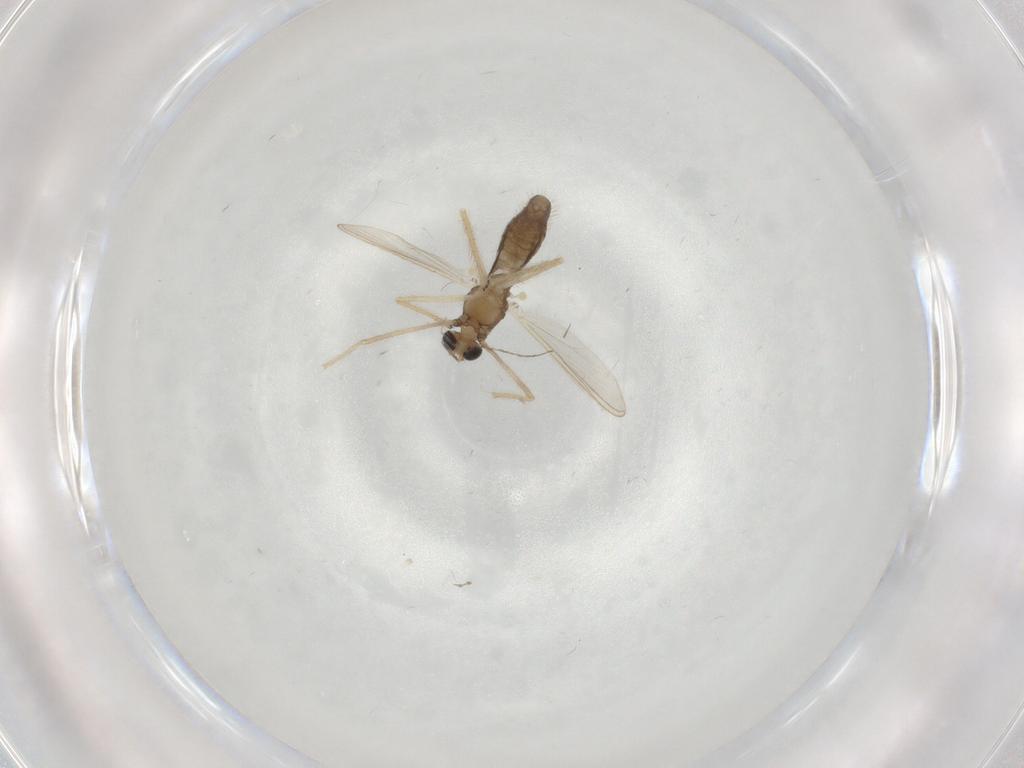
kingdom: Animalia
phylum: Arthropoda
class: Insecta
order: Diptera
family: Chironomidae
